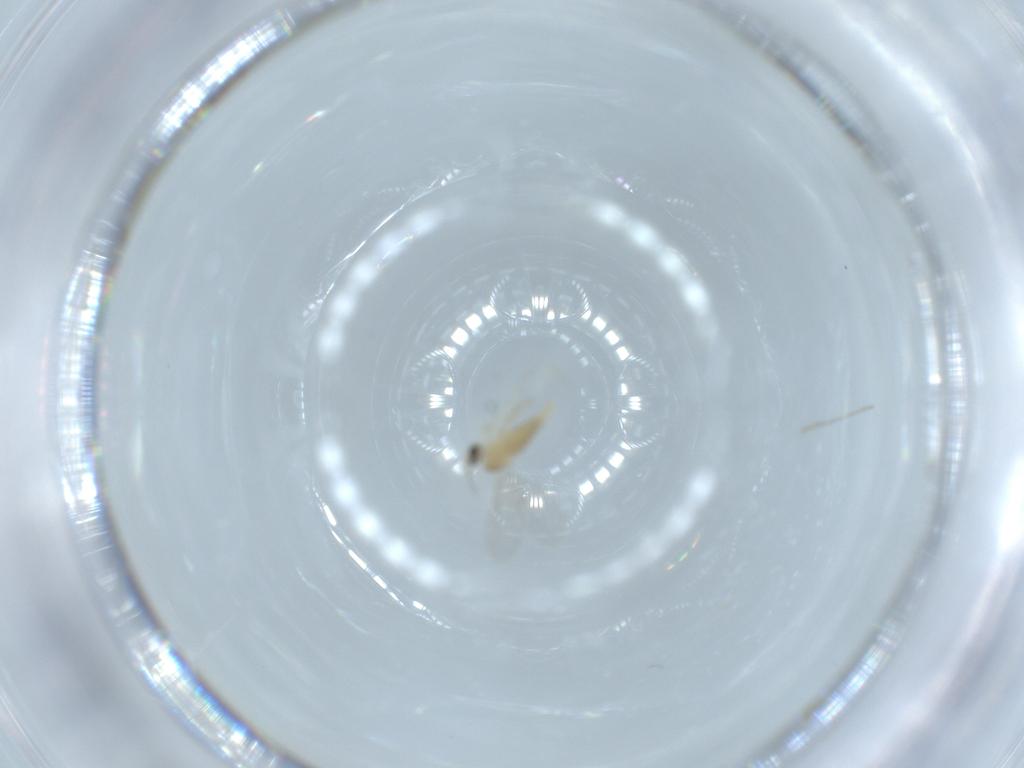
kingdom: Animalia
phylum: Arthropoda
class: Insecta
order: Diptera
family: Cecidomyiidae
